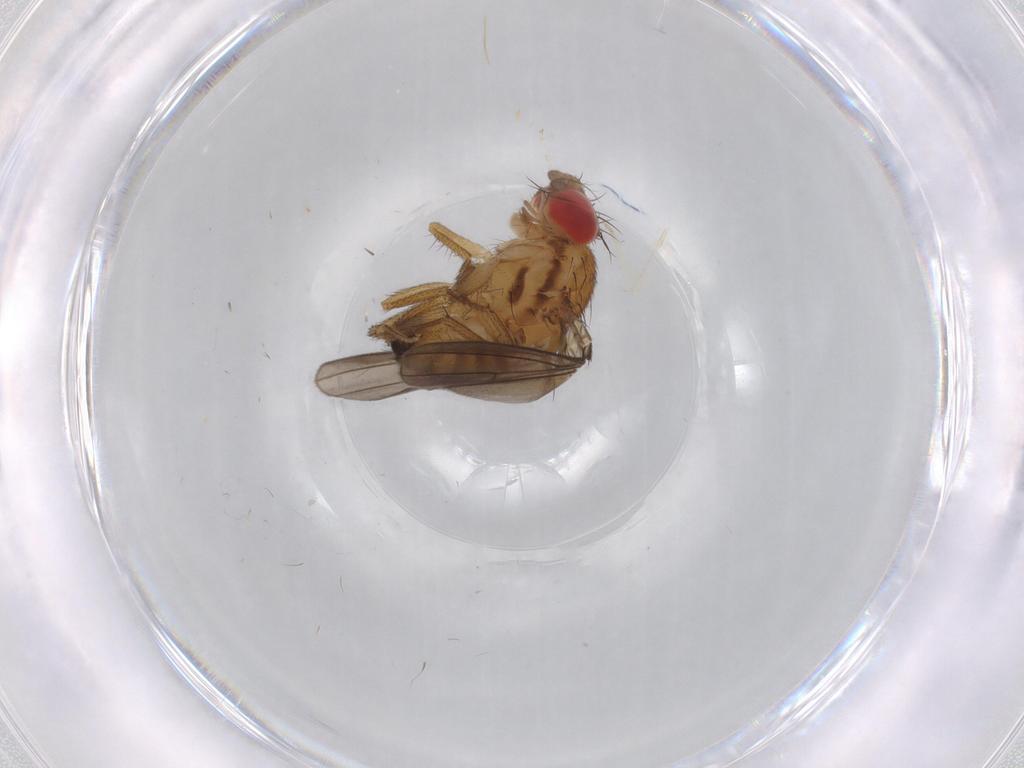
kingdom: Animalia
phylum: Arthropoda
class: Insecta
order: Diptera
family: Drosophilidae
